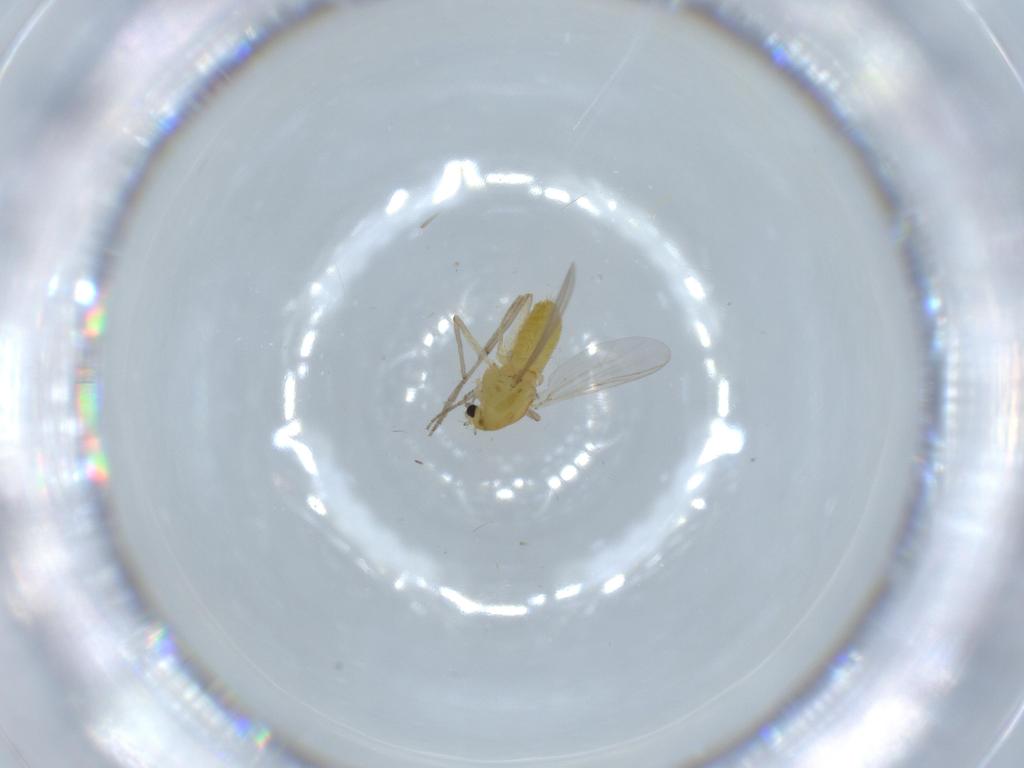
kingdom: Animalia
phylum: Arthropoda
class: Insecta
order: Diptera
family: Chironomidae
